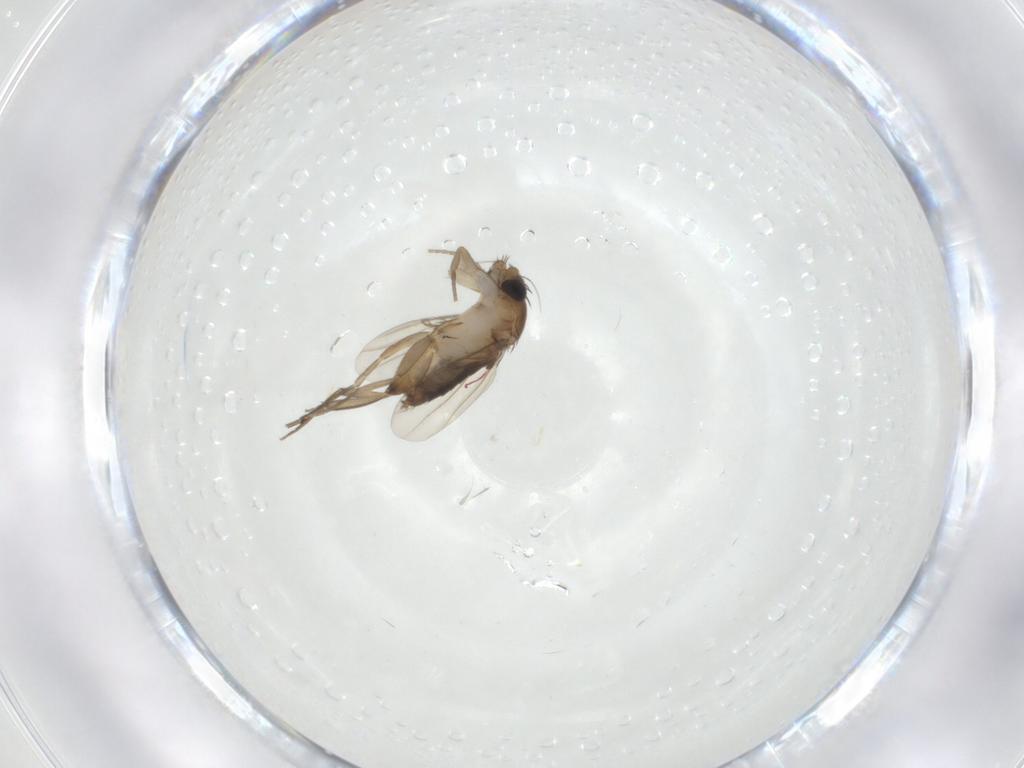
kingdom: Animalia
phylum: Arthropoda
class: Insecta
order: Diptera
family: Phoridae
